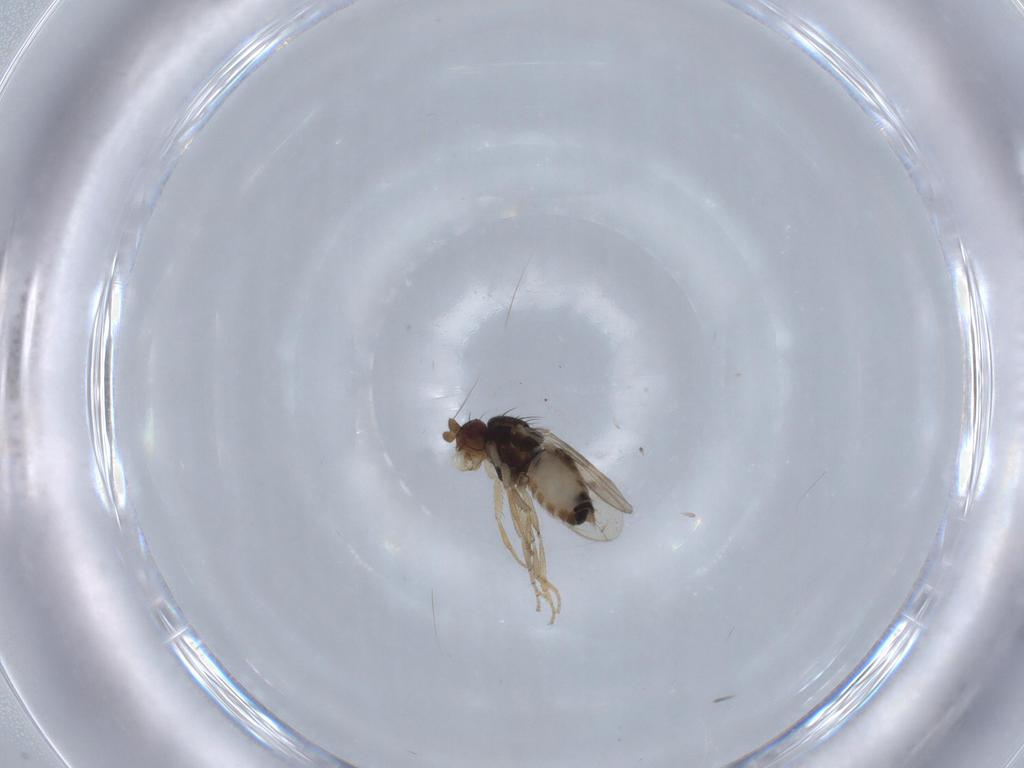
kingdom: Animalia
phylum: Arthropoda
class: Insecta
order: Diptera
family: Sphaeroceridae
